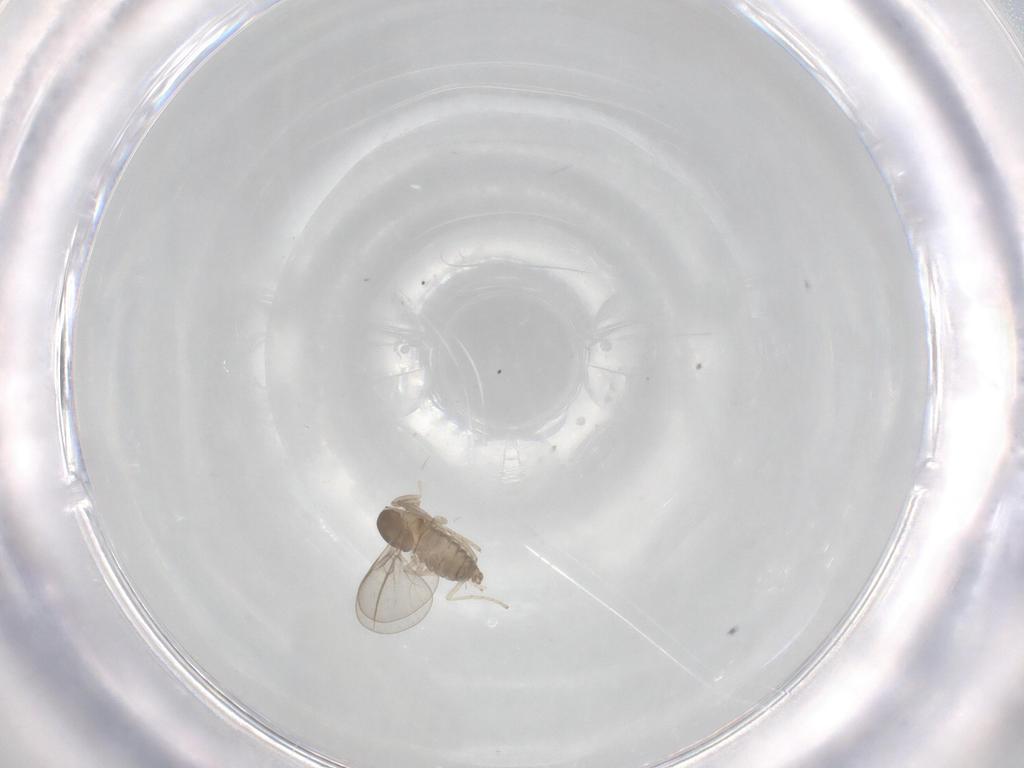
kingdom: Animalia
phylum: Arthropoda
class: Insecta
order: Diptera
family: Cecidomyiidae
